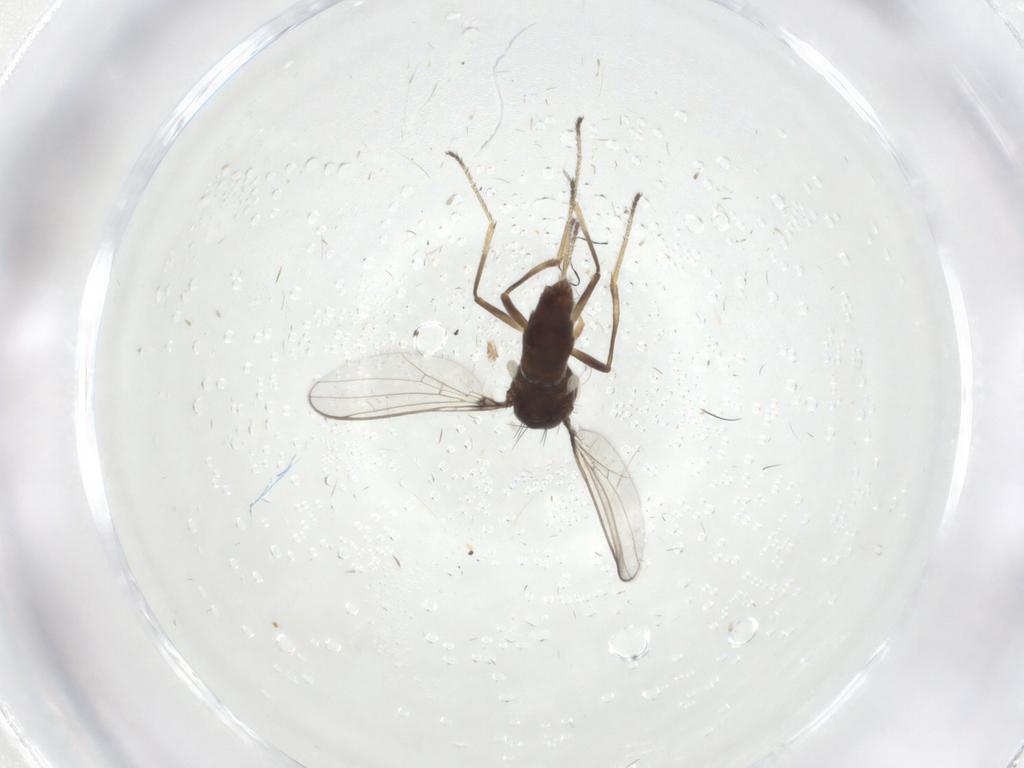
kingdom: Animalia
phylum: Arthropoda
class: Insecta
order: Diptera
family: Sepsidae
